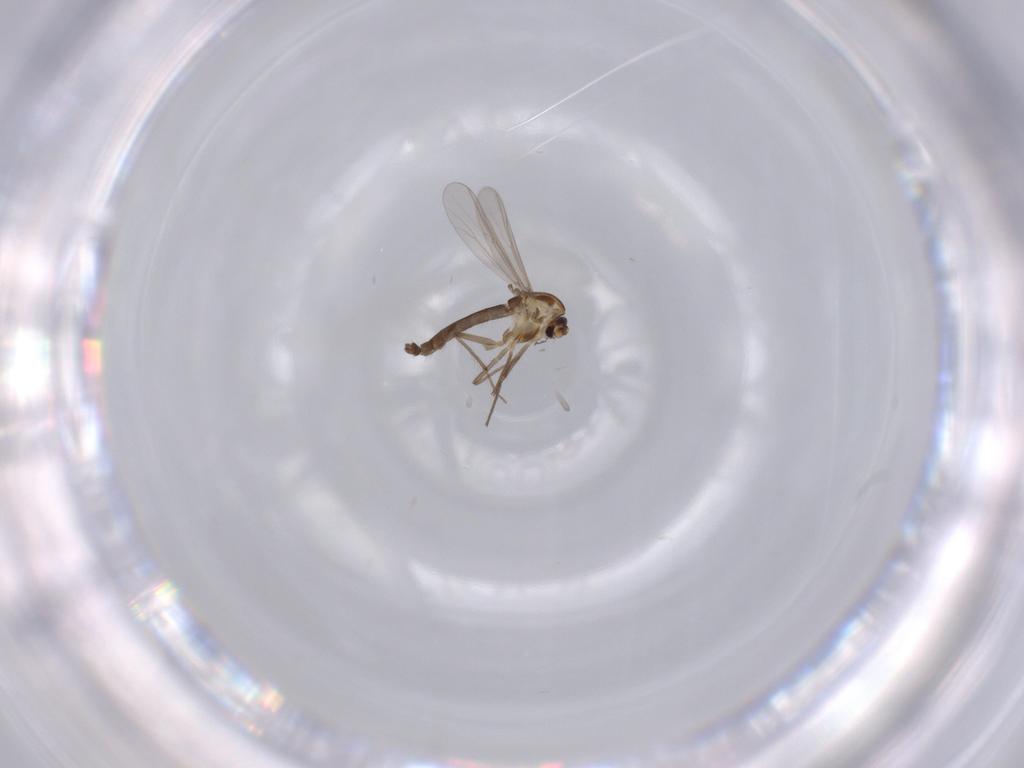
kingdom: Animalia
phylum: Arthropoda
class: Insecta
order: Diptera
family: Chironomidae
